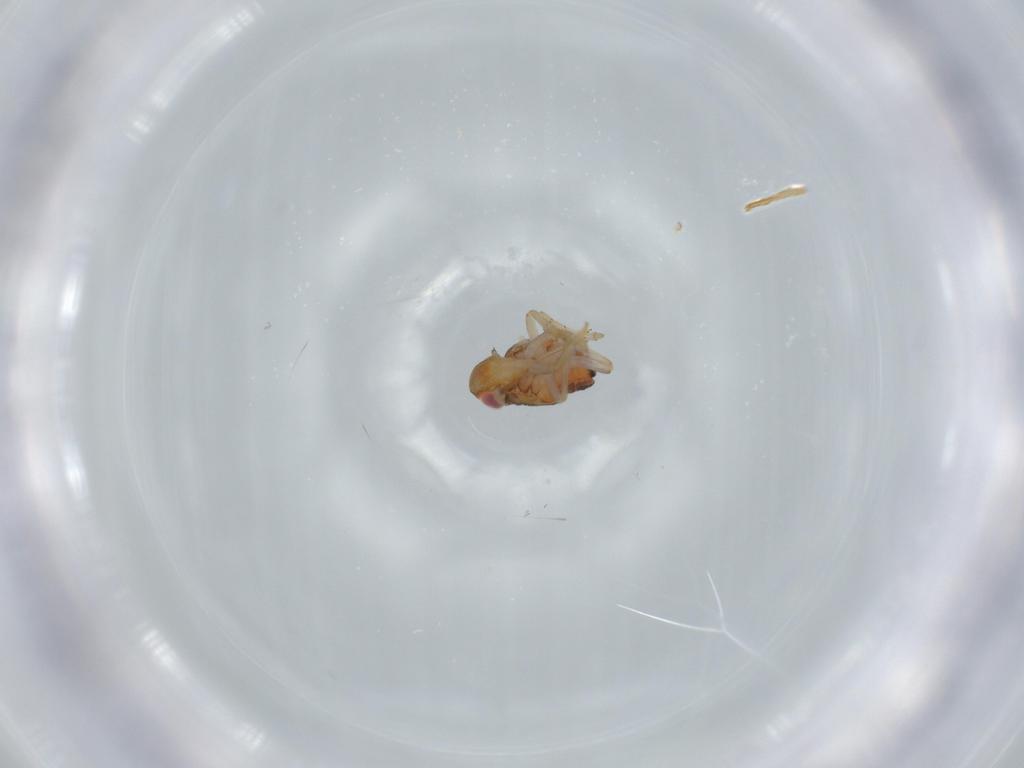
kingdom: Animalia
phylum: Arthropoda
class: Insecta
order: Hemiptera
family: Issidae
